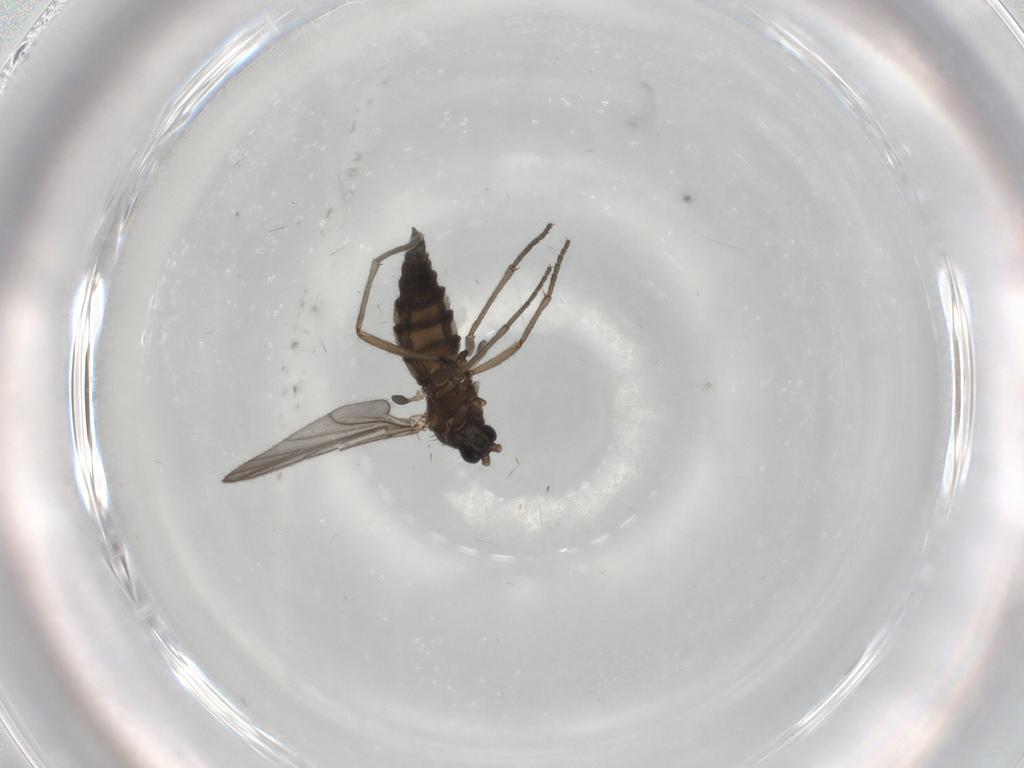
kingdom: Animalia
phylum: Arthropoda
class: Insecta
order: Diptera
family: Sciaridae
